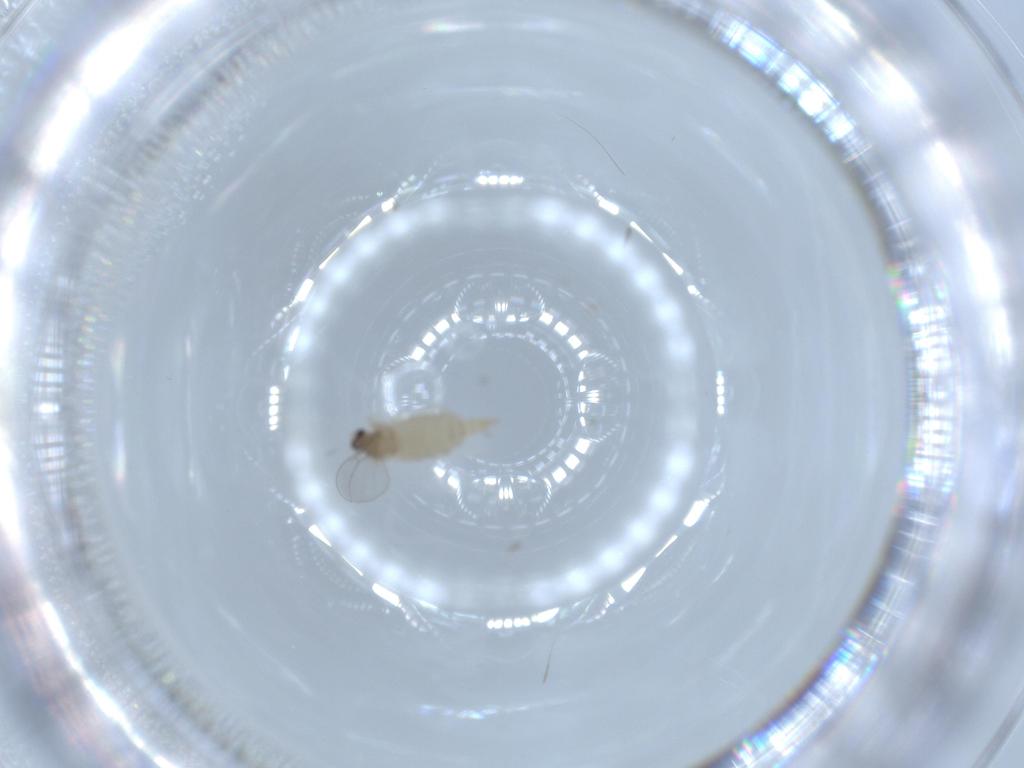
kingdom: Animalia
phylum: Arthropoda
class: Insecta
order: Diptera
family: Cecidomyiidae
